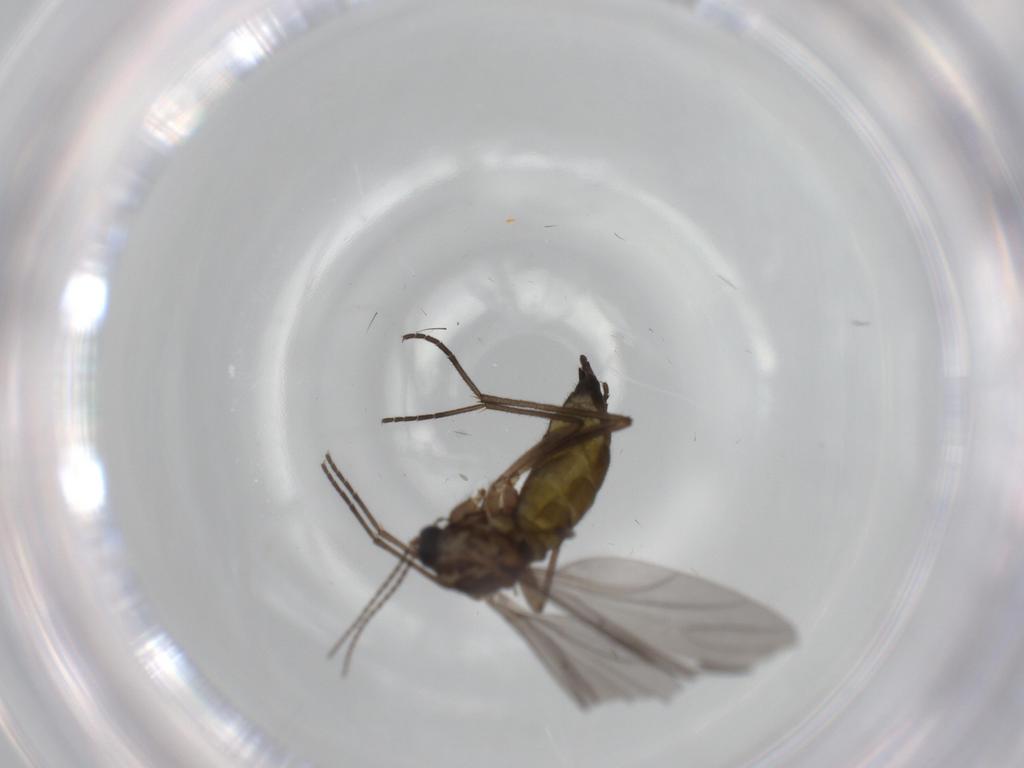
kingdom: Animalia
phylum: Arthropoda
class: Insecta
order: Diptera
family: Sciaridae
